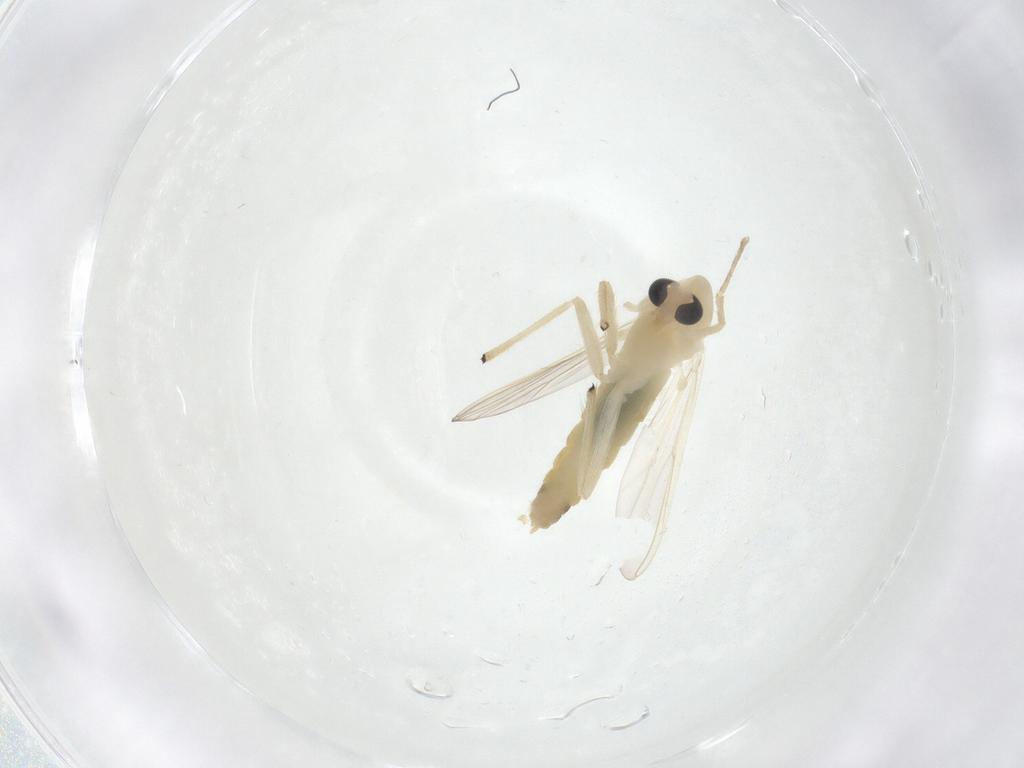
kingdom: Animalia
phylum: Arthropoda
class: Insecta
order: Diptera
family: Chironomidae
